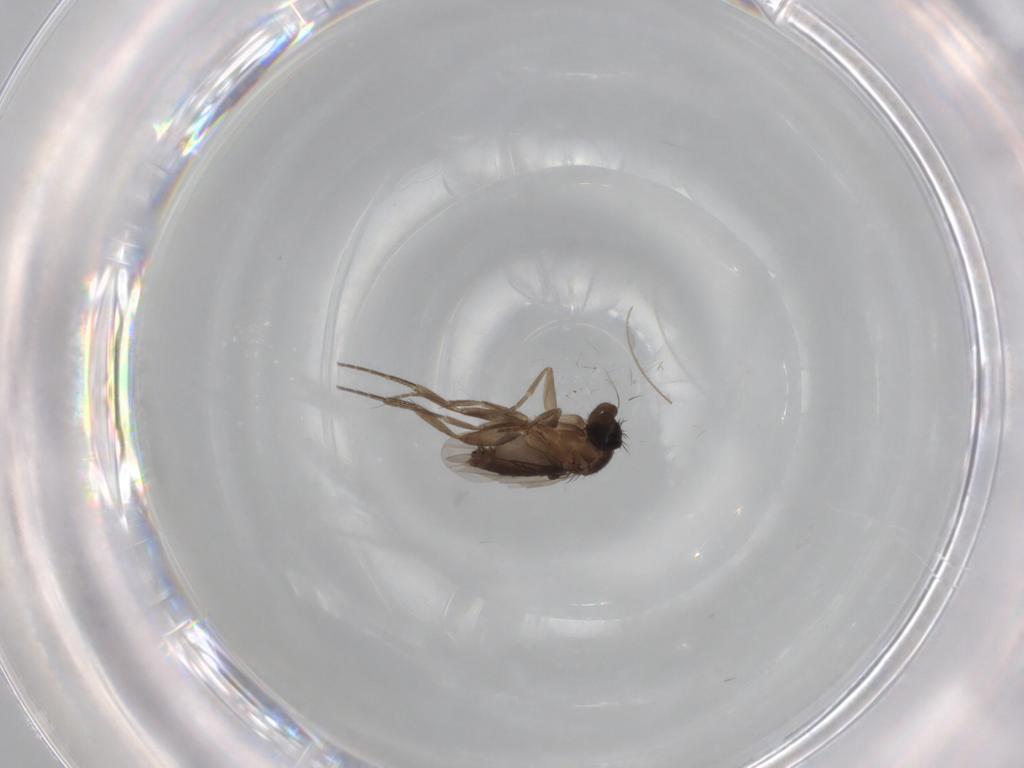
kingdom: Animalia
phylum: Arthropoda
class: Insecta
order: Diptera
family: Phoridae
